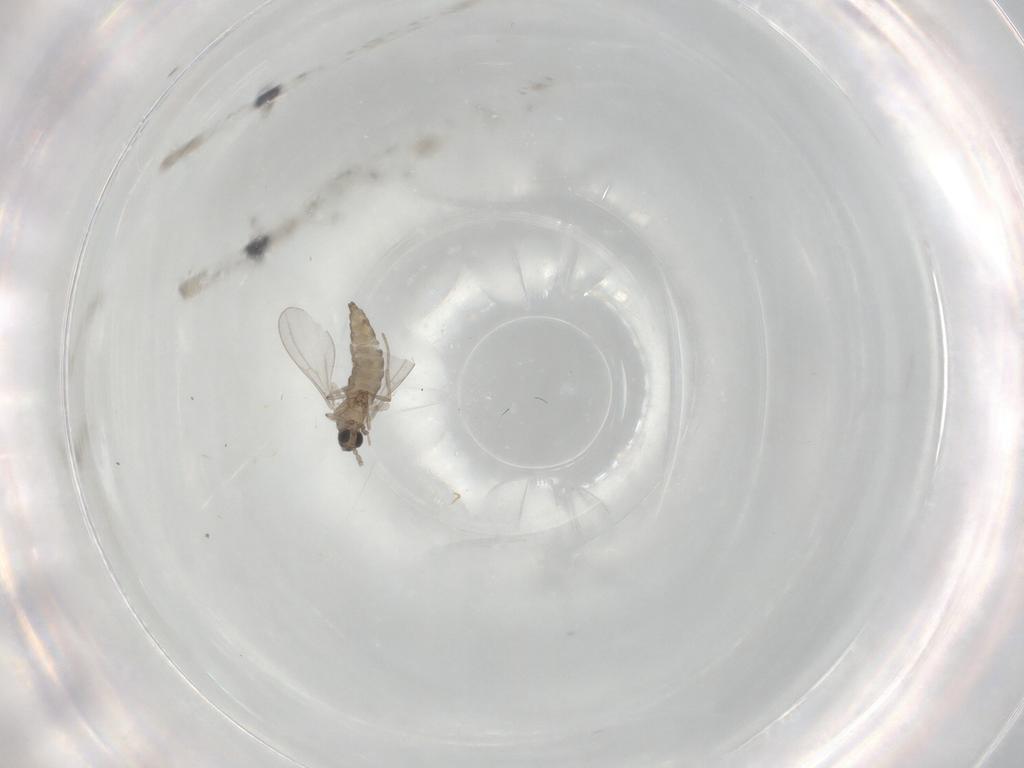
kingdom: Animalia
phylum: Arthropoda
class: Insecta
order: Diptera
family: Cecidomyiidae
